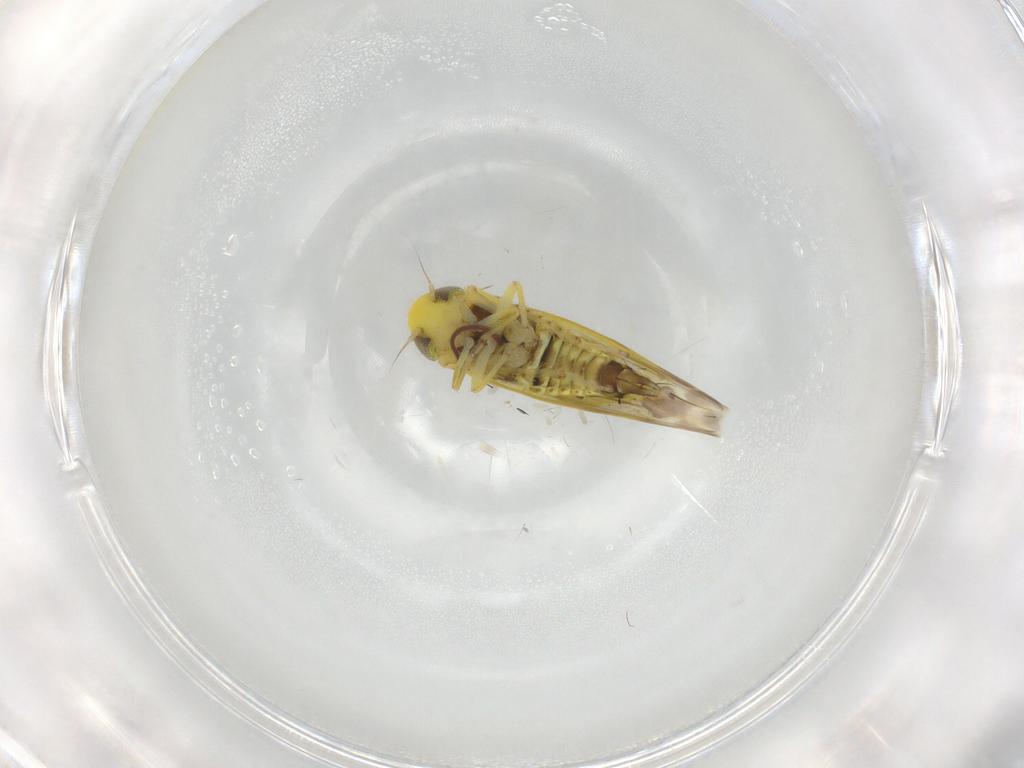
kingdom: Animalia
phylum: Arthropoda
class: Insecta
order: Hemiptera
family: Cicadellidae
